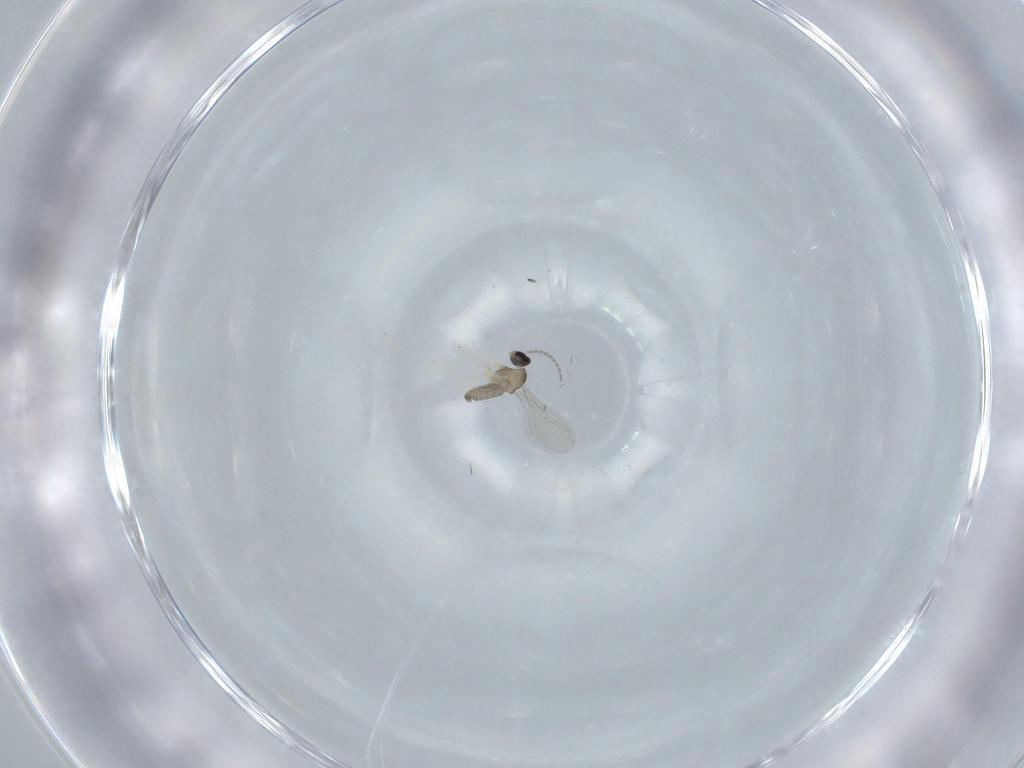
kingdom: Animalia
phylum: Arthropoda
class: Insecta
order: Diptera
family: Cecidomyiidae
